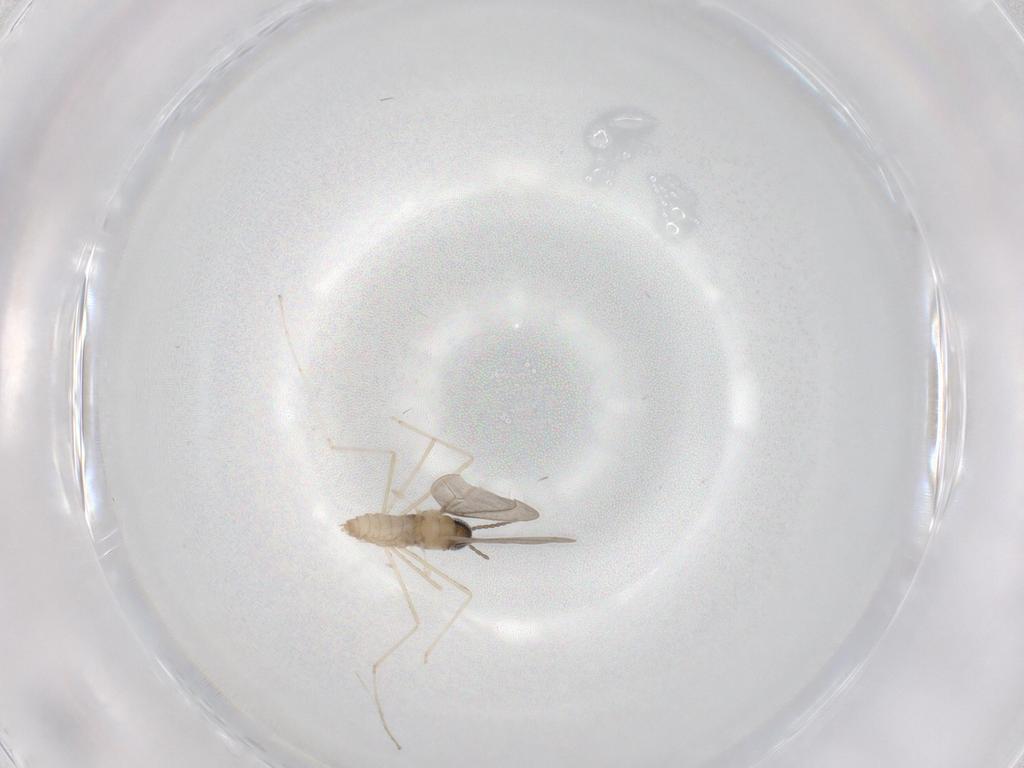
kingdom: Animalia
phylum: Arthropoda
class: Insecta
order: Diptera
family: Cecidomyiidae
